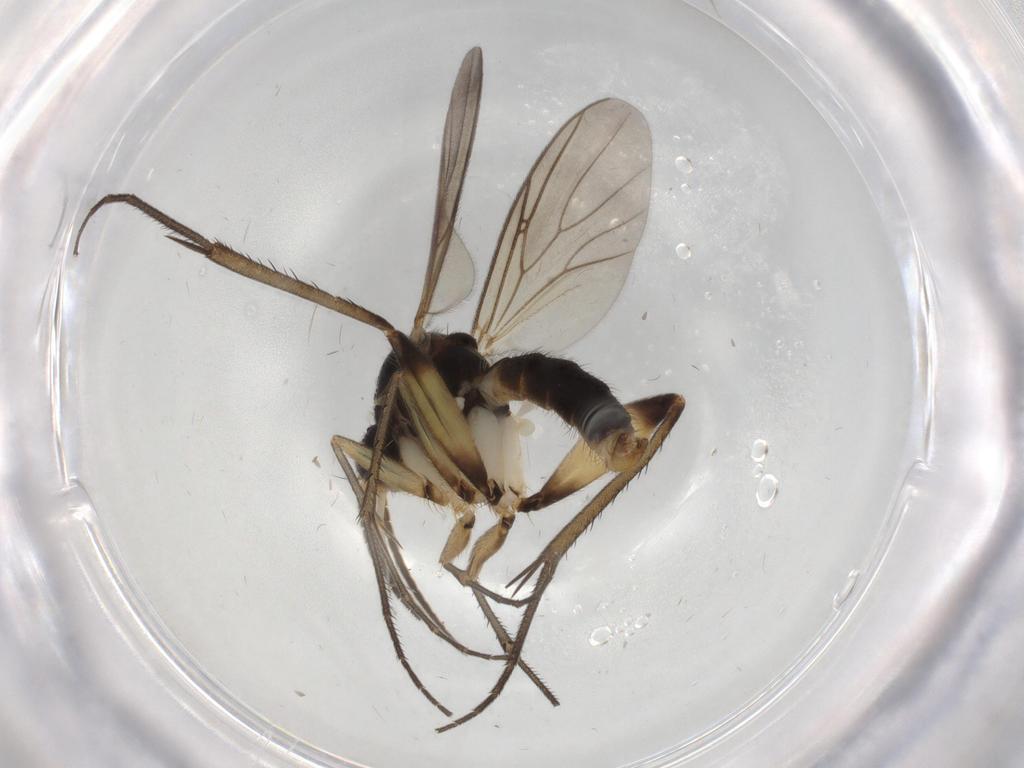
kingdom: Animalia
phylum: Arthropoda
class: Insecta
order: Diptera
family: Mycetophilidae
